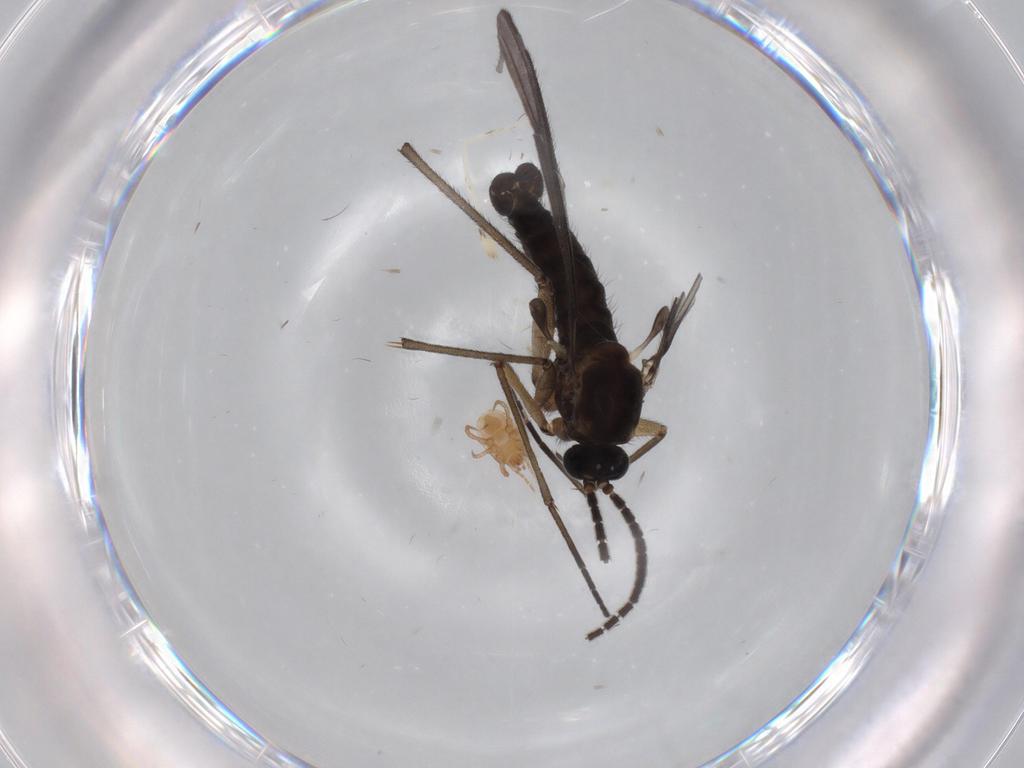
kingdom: Animalia
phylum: Arthropoda
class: Insecta
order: Diptera
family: Sciaridae
